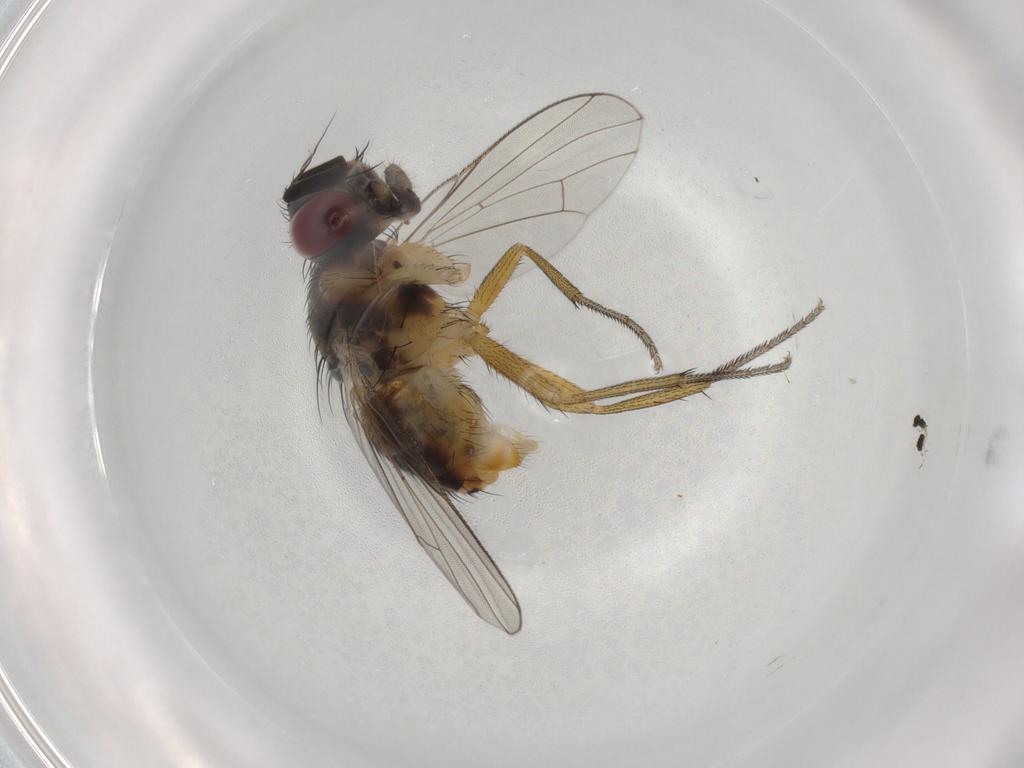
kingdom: Animalia
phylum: Arthropoda
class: Insecta
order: Diptera
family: Muscidae
